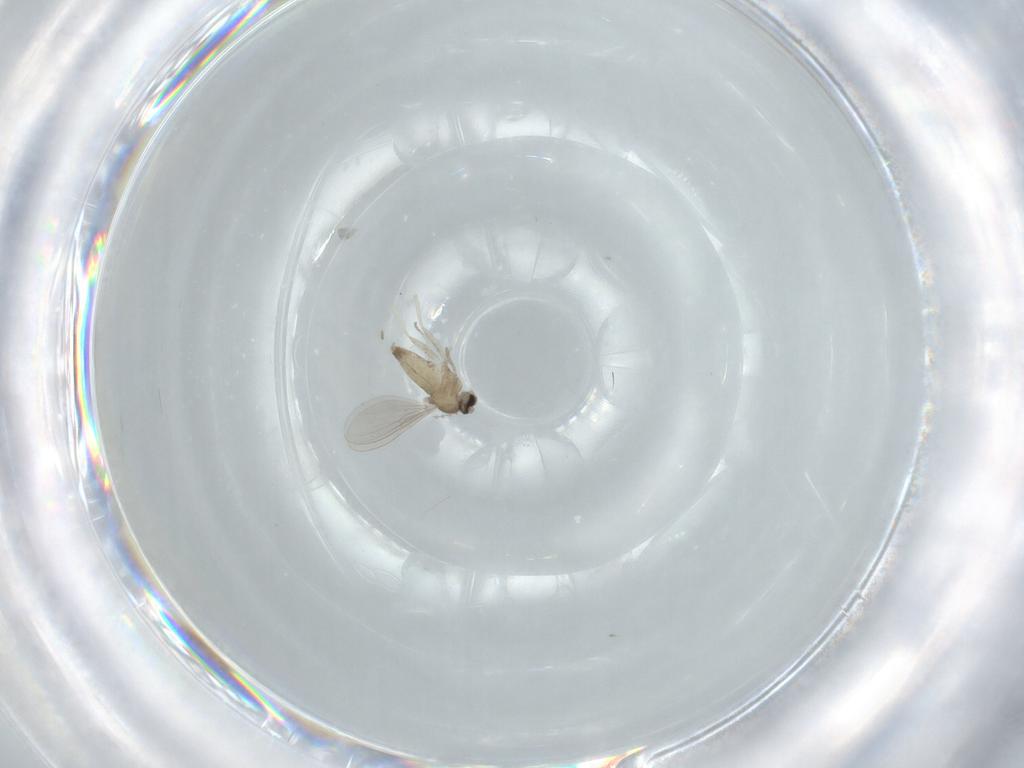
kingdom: Animalia
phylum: Arthropoda
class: Insecta
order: Diptera
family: Cecidomyiidae
